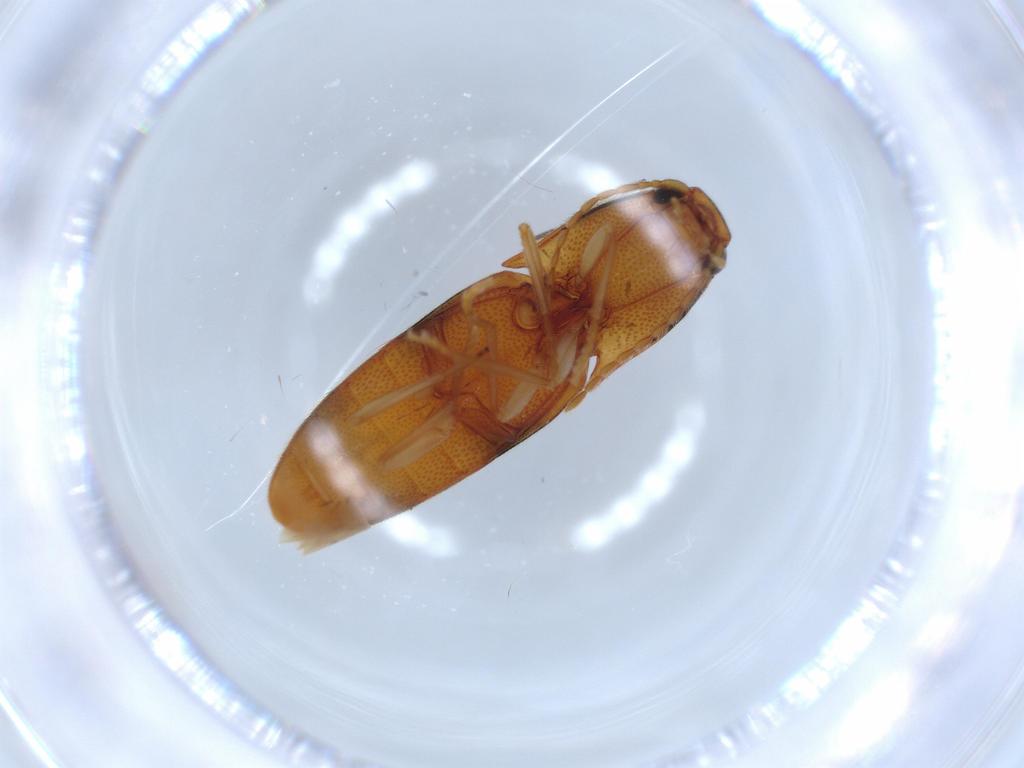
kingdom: Animalia
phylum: Arthropoda
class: Insecta
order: Coleoptera
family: Elateridae
